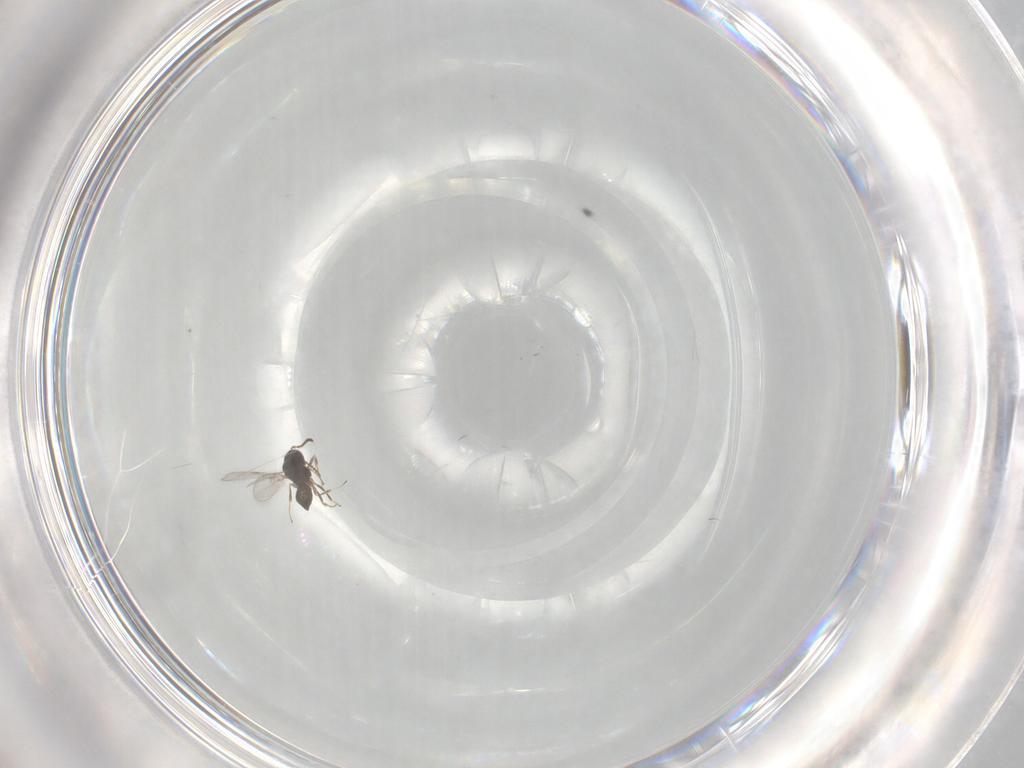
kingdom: Animalia
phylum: Arthropoda
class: Insecta
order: Hymenoptera
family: Scelionidae
